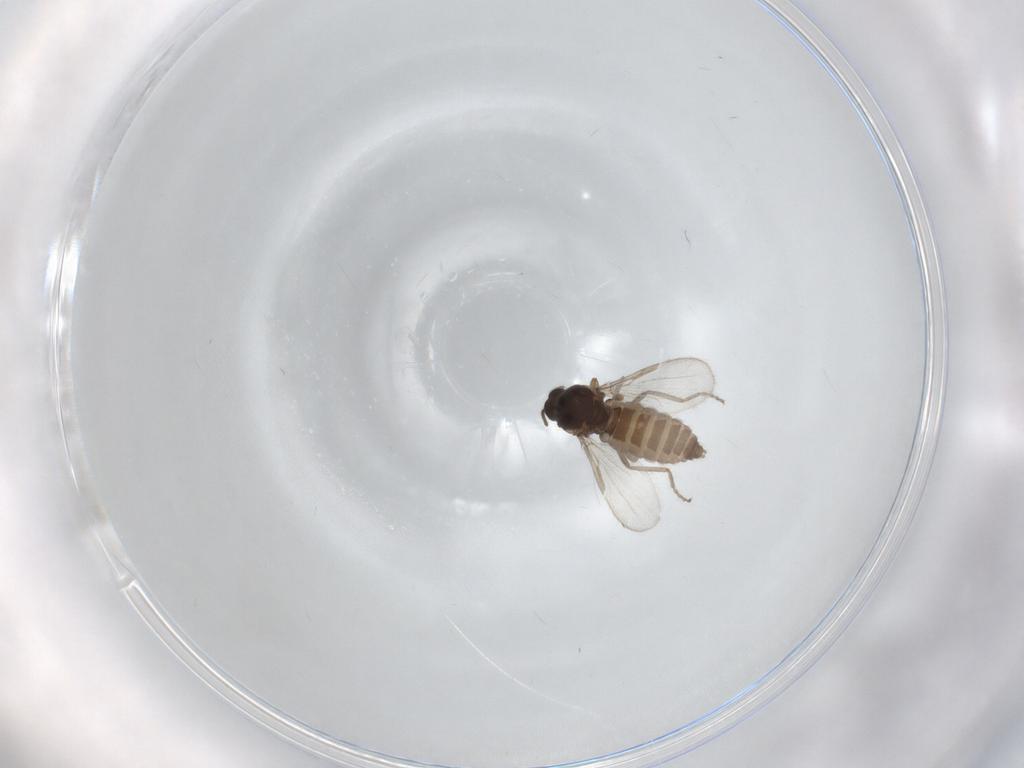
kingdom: Animalia
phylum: Arthropoda
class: Insecta
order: Diptera
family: Ceratopogonidae
